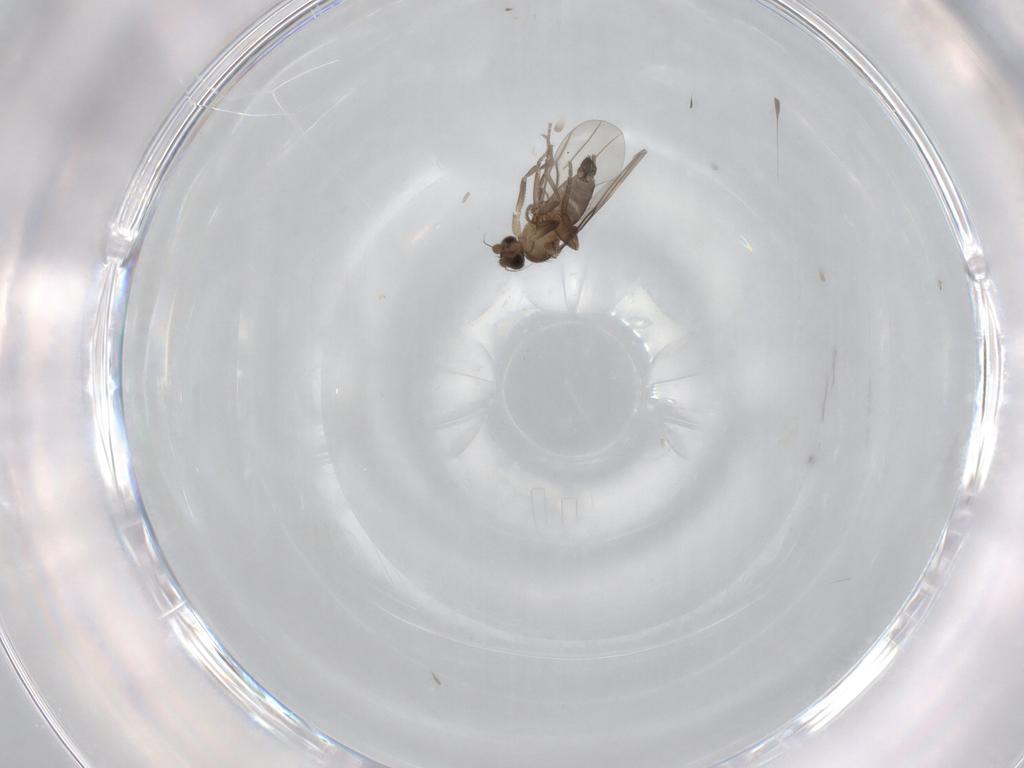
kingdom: Animalia
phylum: Arthropoda
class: Insecta
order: Diptera
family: Phoridae
